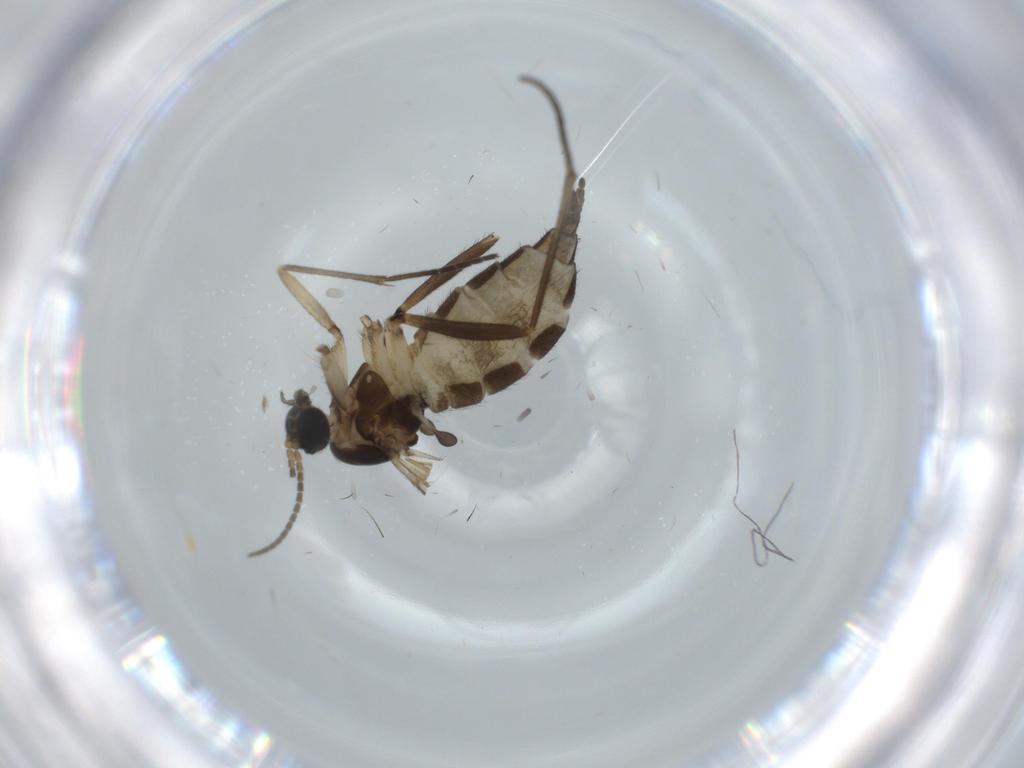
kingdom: Animalia
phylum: Arthropoda
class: Insecta
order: Diptera
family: Sciaridae
